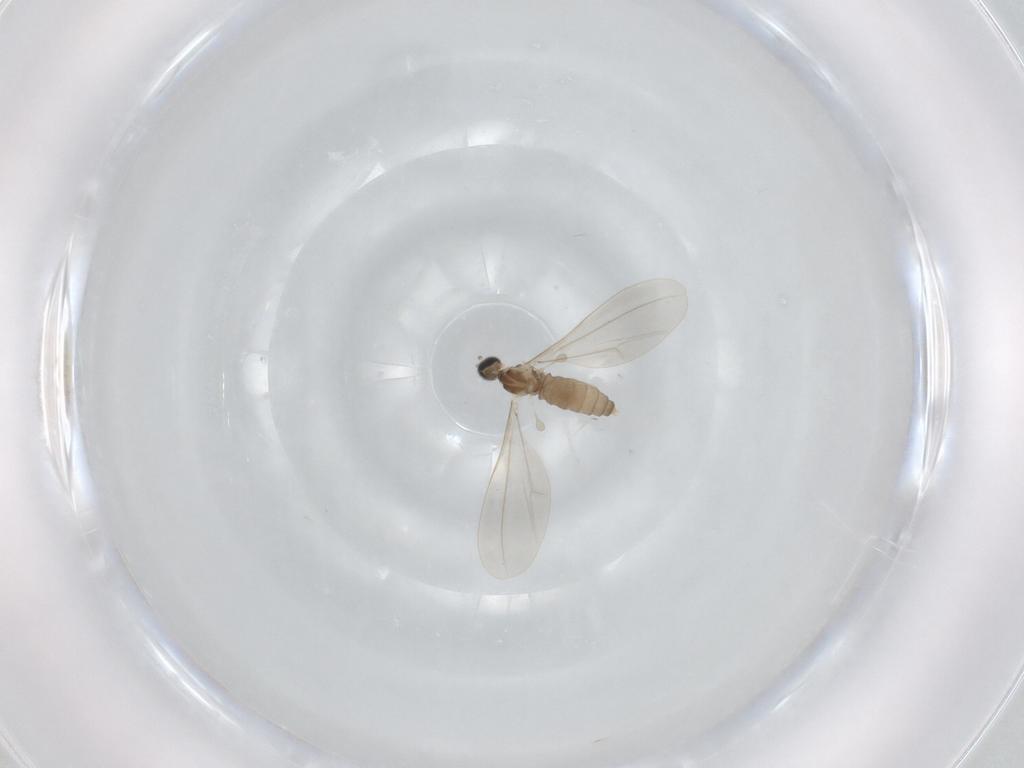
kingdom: Animalia
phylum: Arthropoda
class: Insecta
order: Diptera
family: Cecidomyiidae
